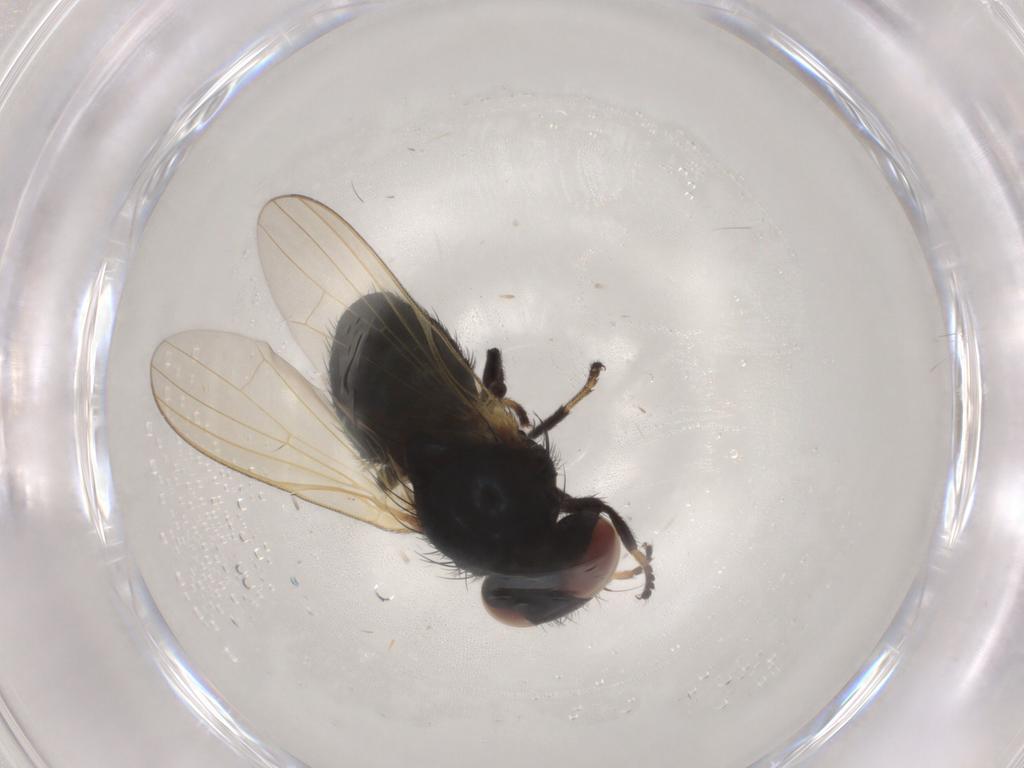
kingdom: Animalia
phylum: Arthropoda
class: Insecta
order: Diptera
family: Lonchaeidae
